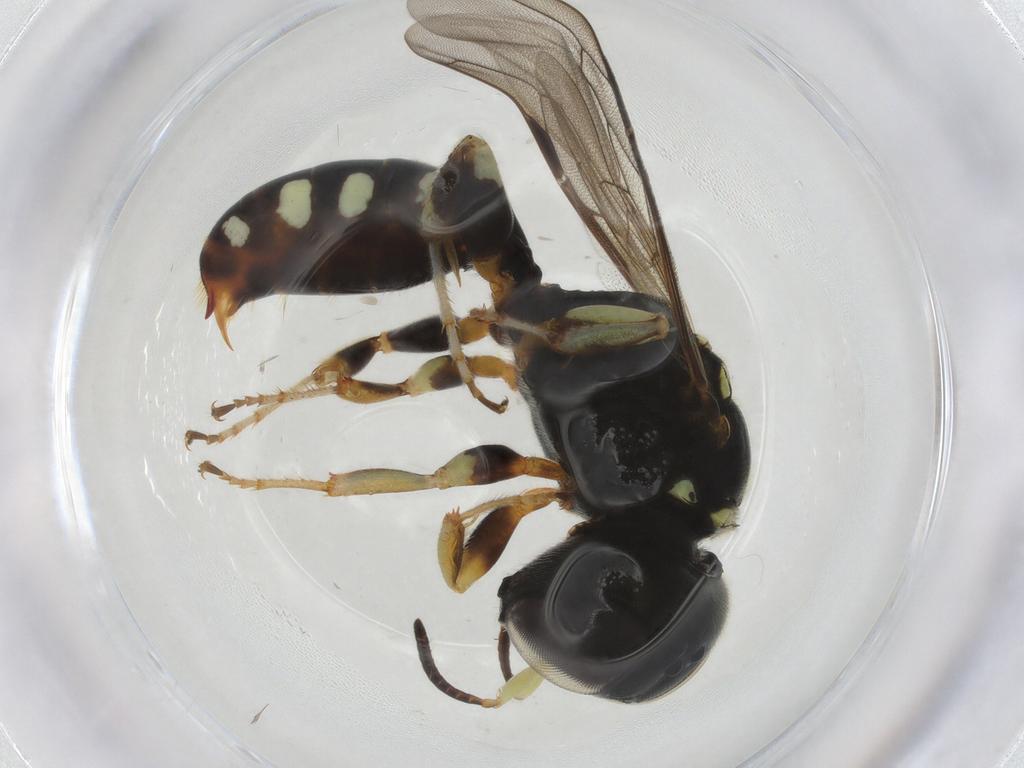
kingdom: Animalia
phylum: Arthropoda
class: Insecta
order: Hymenoptera
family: Crabronidae
